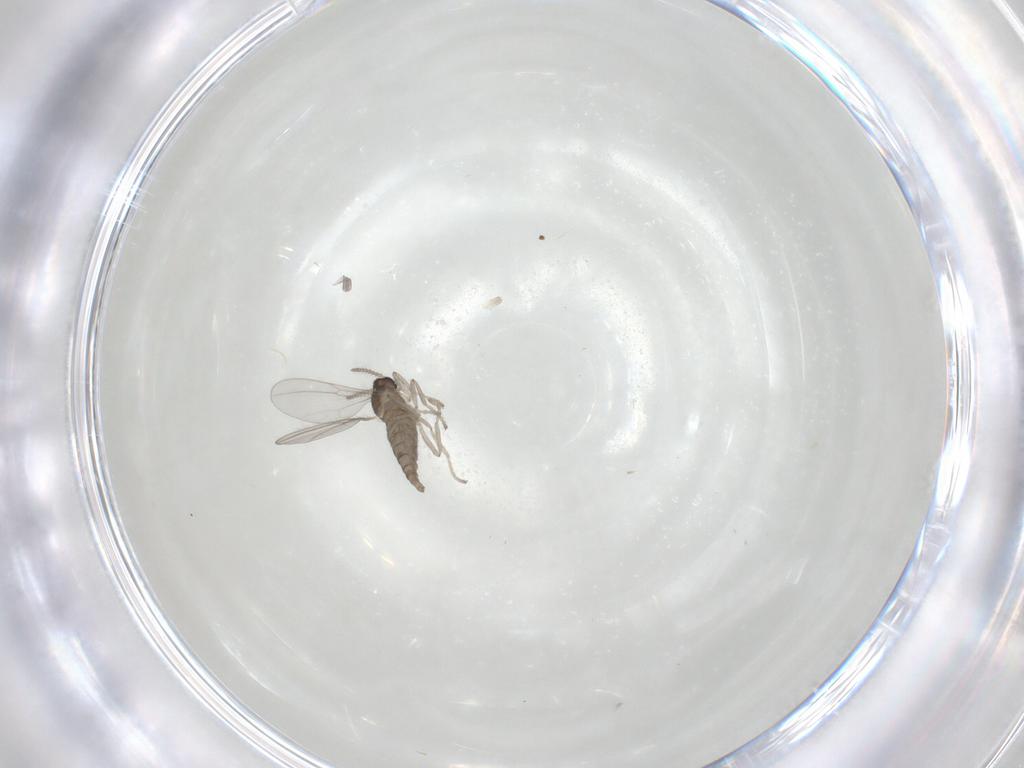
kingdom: Animalia
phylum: Arthropoda
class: Insecta
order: Diptera
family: Cecidomyiidae
